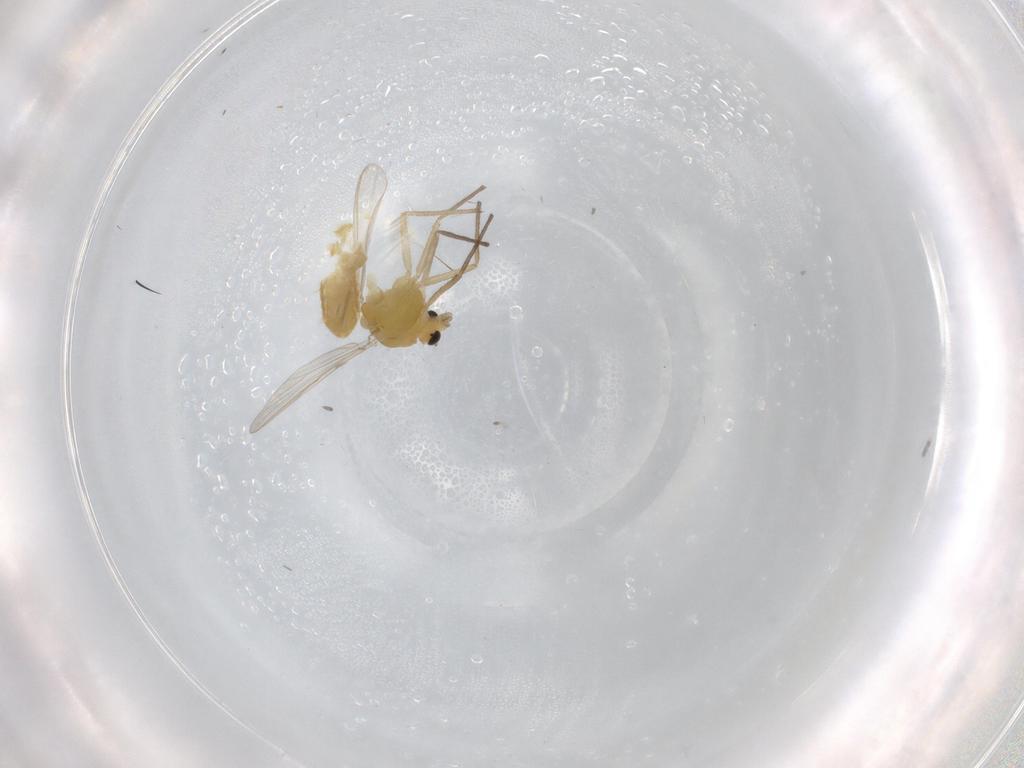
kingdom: Animalia
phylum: Arthropoda
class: Insecta
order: Diptera
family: Chironomidae
